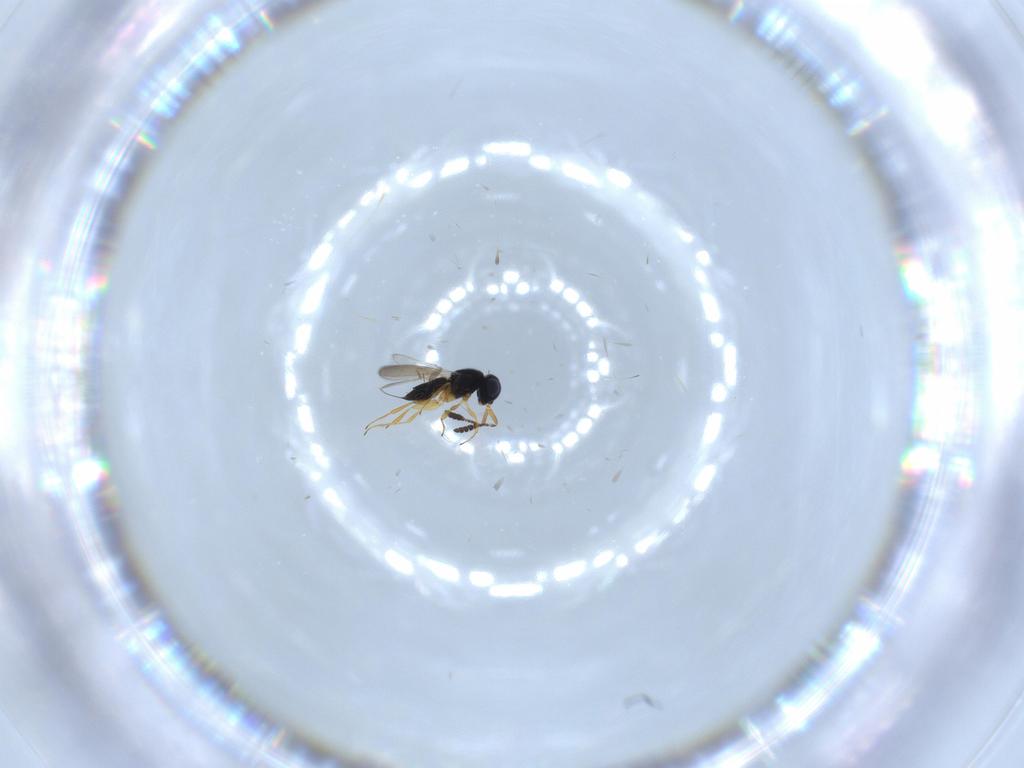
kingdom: Animalia
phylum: Arthropoda
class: Insecta
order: Hymenoptera
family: Scelionidae
